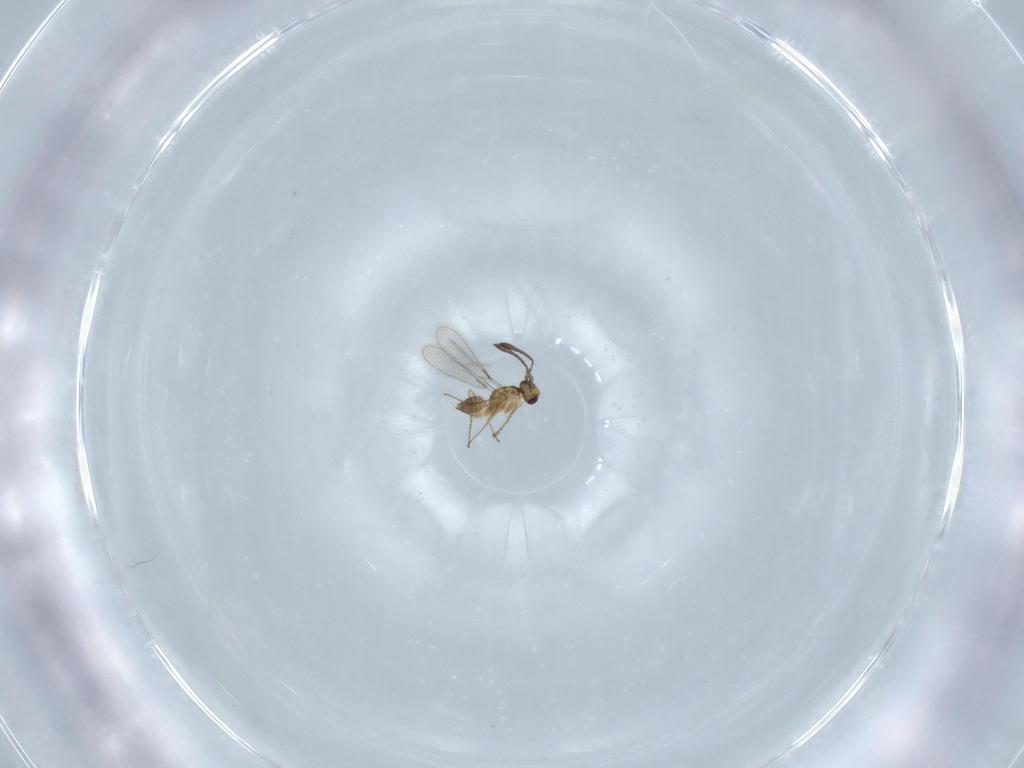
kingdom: Animalia
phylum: Arthropoda
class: Insecta
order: Hymenoptera
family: Mymaridae
